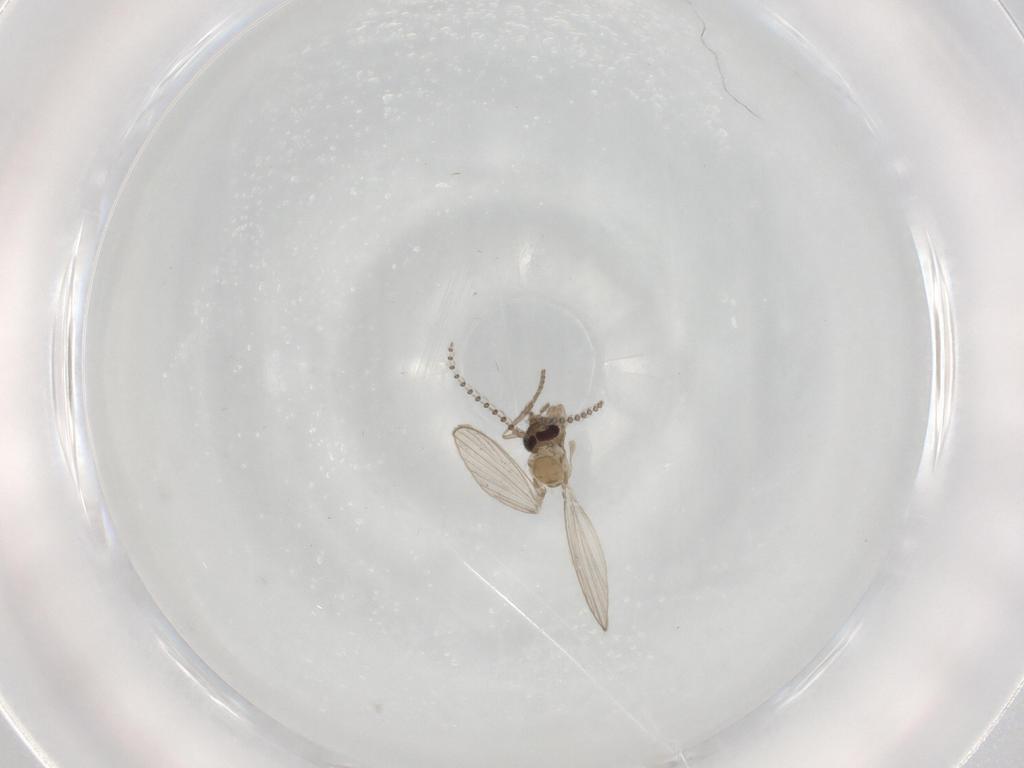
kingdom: Animalia
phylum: Arthropoda
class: Insecta
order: Diptera
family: Psychodidae
